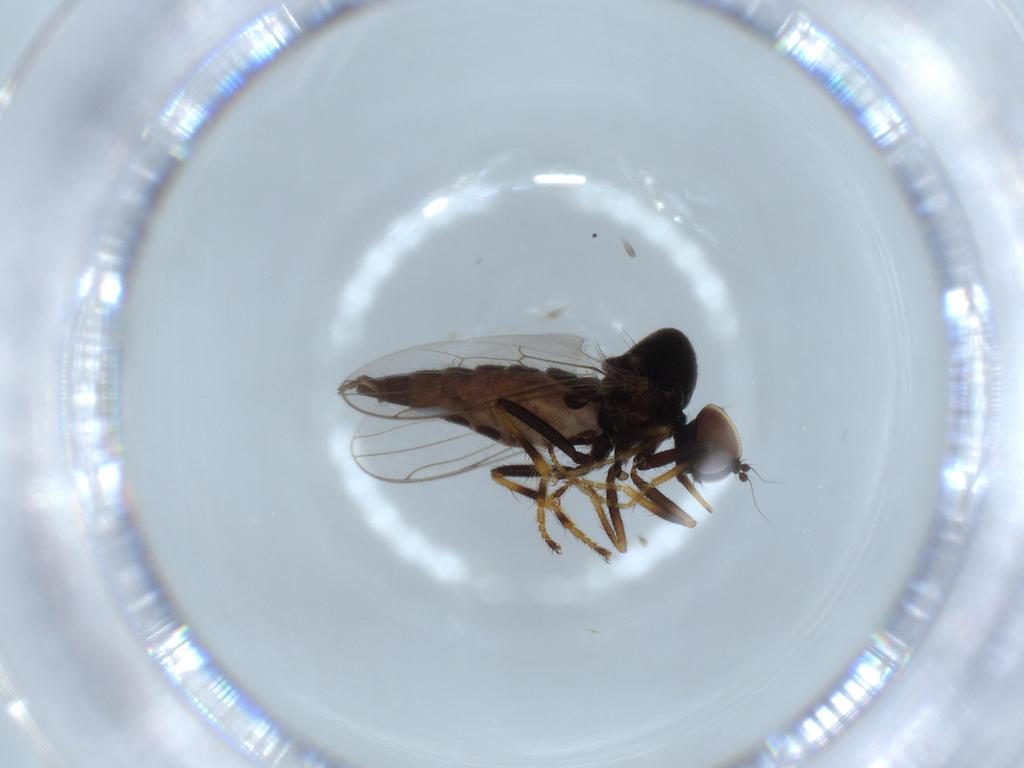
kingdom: Animalia
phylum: Arthropoda
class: Insecta
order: Diptera
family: Hybotidae
